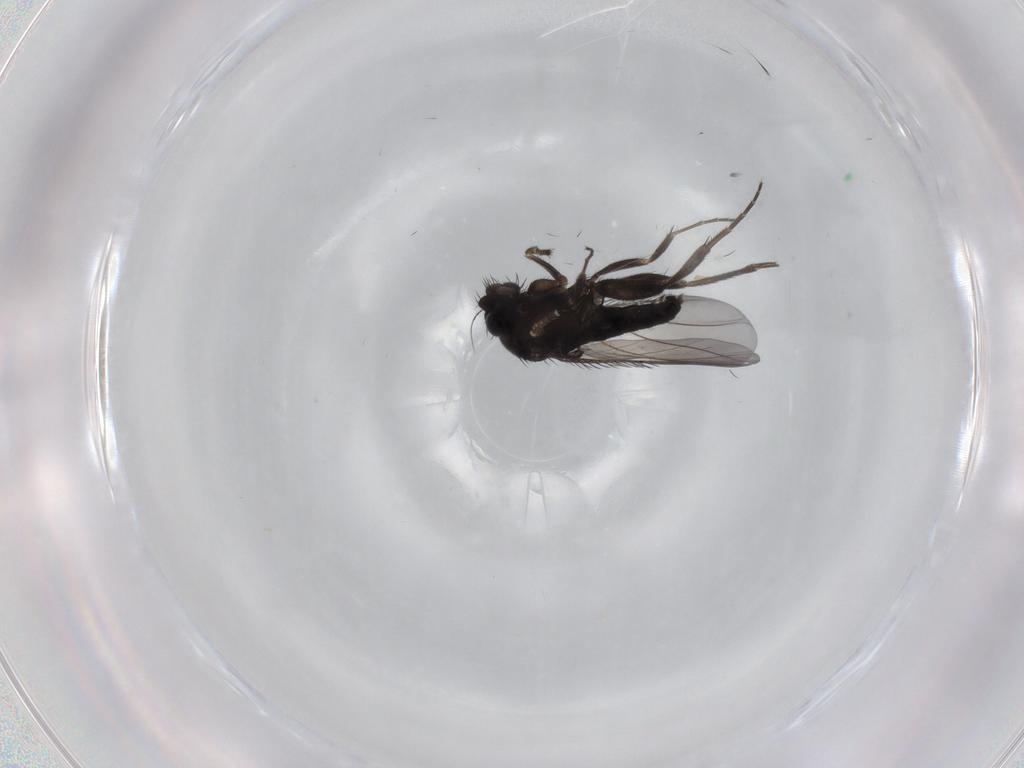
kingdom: Animalia
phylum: Arthropoda
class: Insecta
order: Diptera
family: Phoridae
